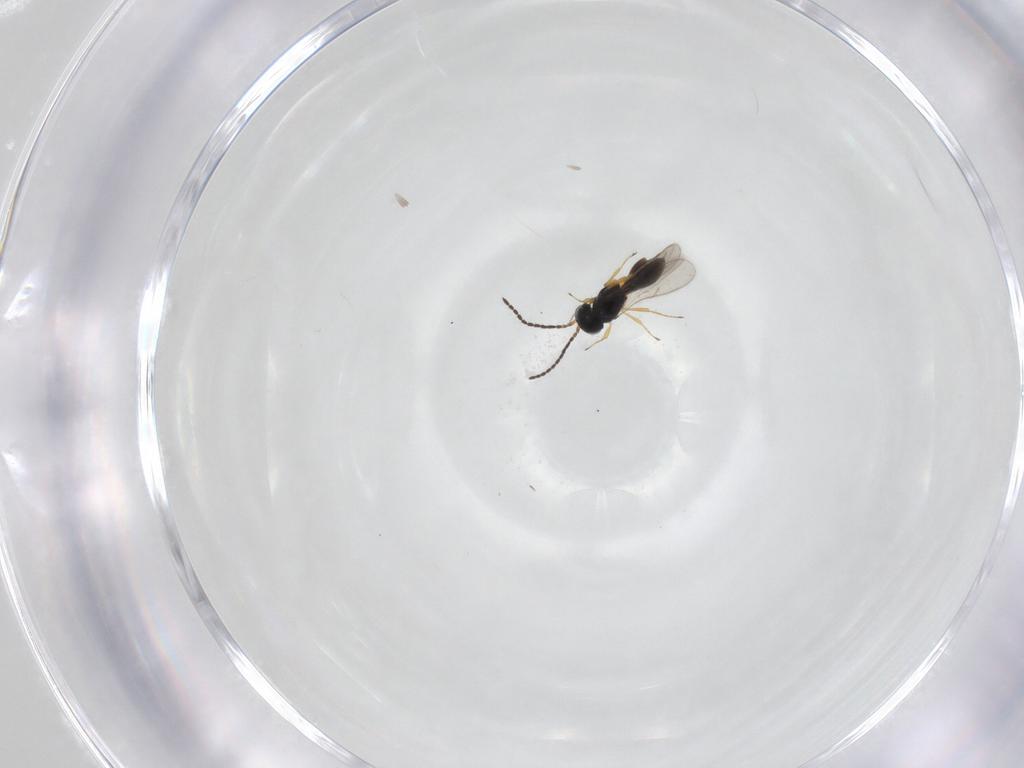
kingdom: Animalia
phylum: Arthropoda
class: Insecta
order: Hymenoptera
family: Scelionidae
